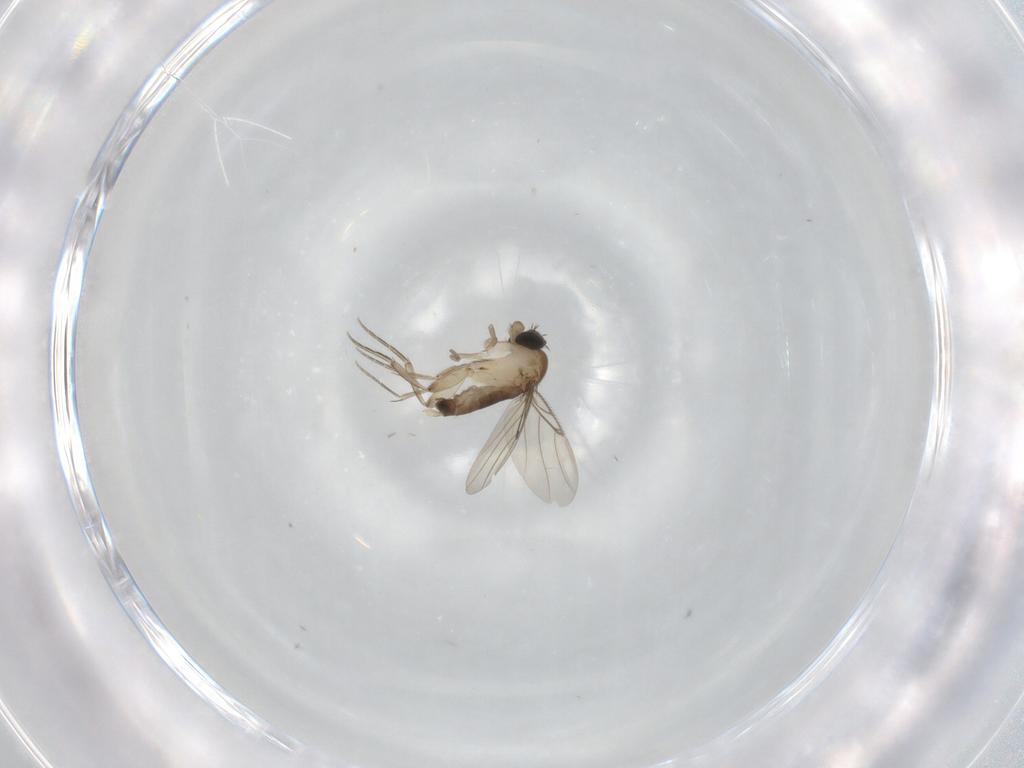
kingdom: Animalia
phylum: Arthropoda
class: Insecta
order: Diptera
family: Phoridae
